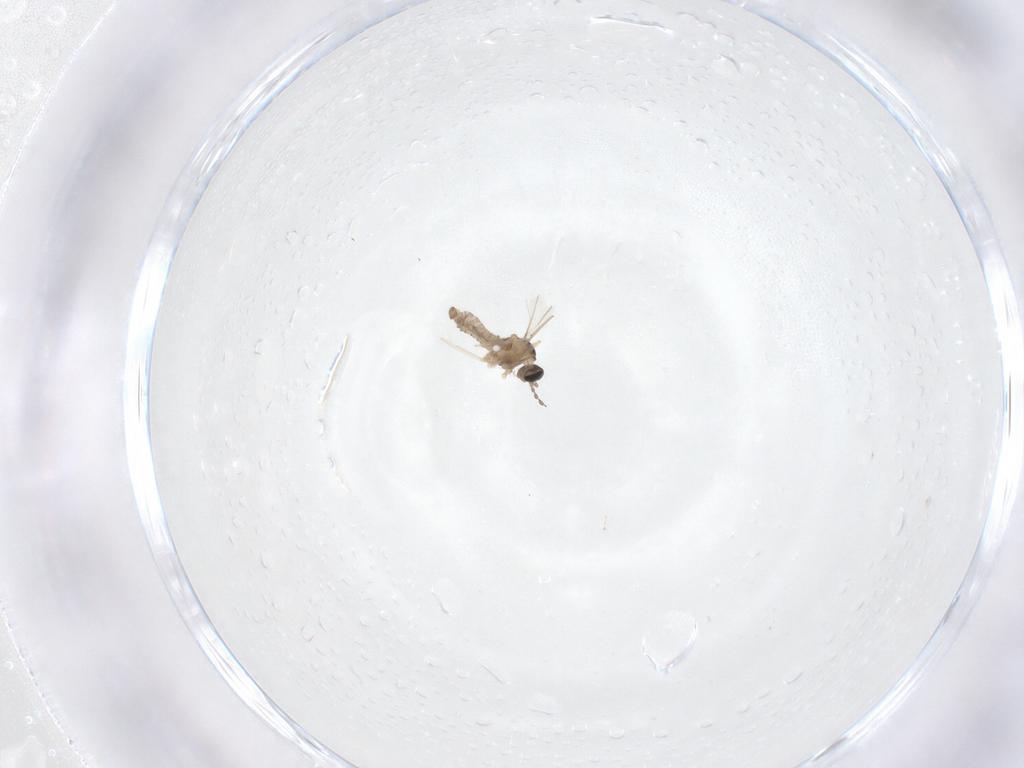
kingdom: Animalia
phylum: Arthropoda
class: Insecta
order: Diptera
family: Cecidomyiidae
